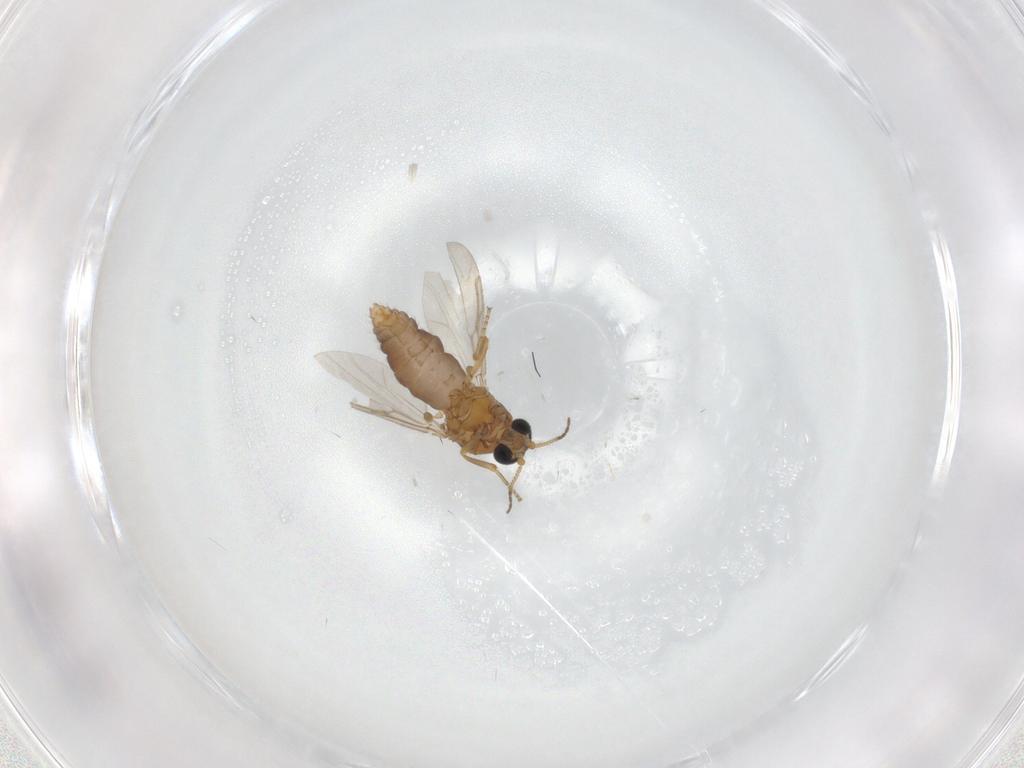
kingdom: Animalia
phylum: Arthropoda
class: Insecta
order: Diptera
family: Ceratopogonidae
